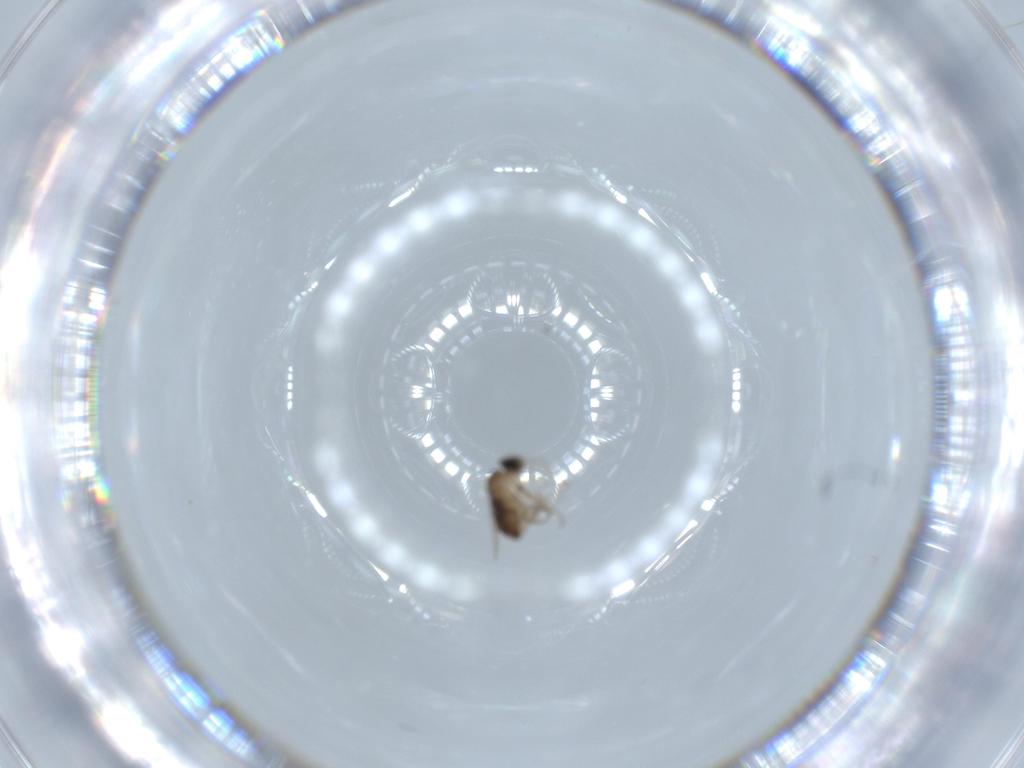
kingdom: Animalia
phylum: Arthropoda
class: Insecta
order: Diptera
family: Phoridae
